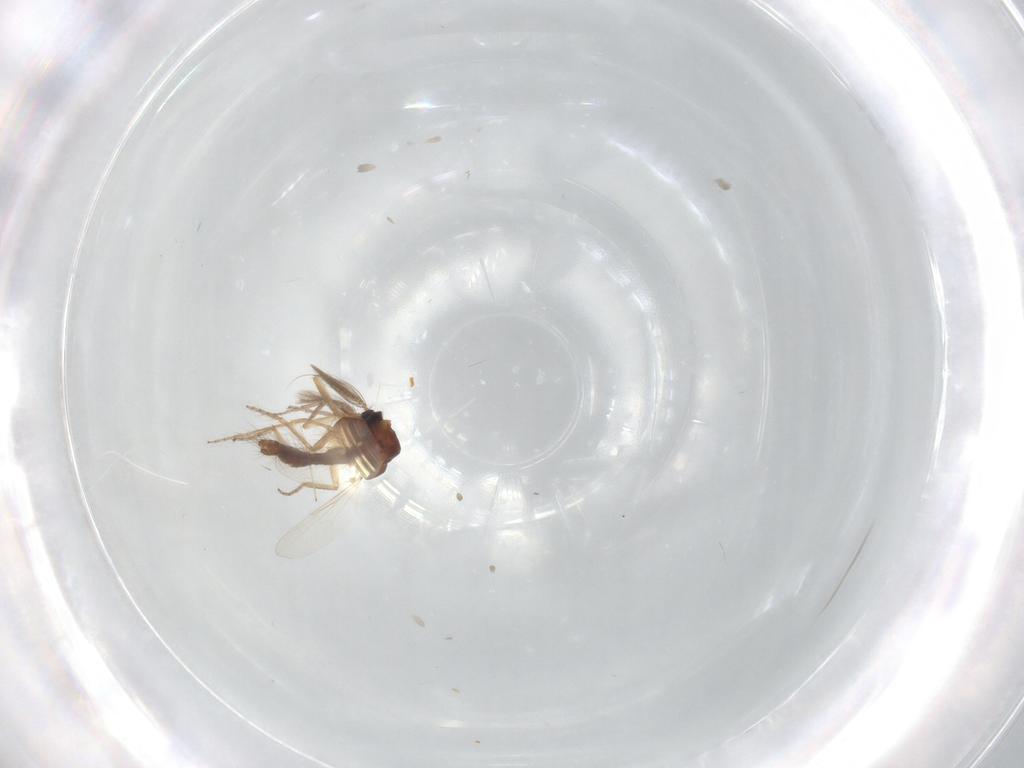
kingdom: Animalia
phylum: Arthropoda
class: Insecta
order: Diptera
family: Ceratopogonidae
